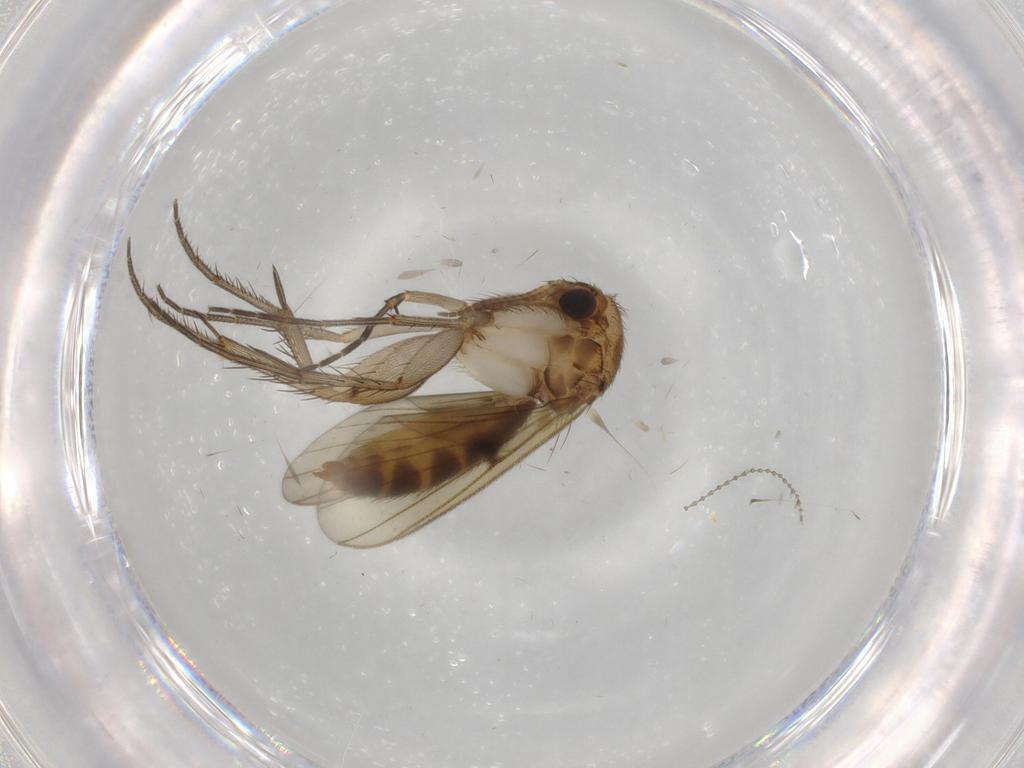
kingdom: Animalia
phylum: Arthropoda
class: Insecta
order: Diptera
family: Cecidomyiidae
